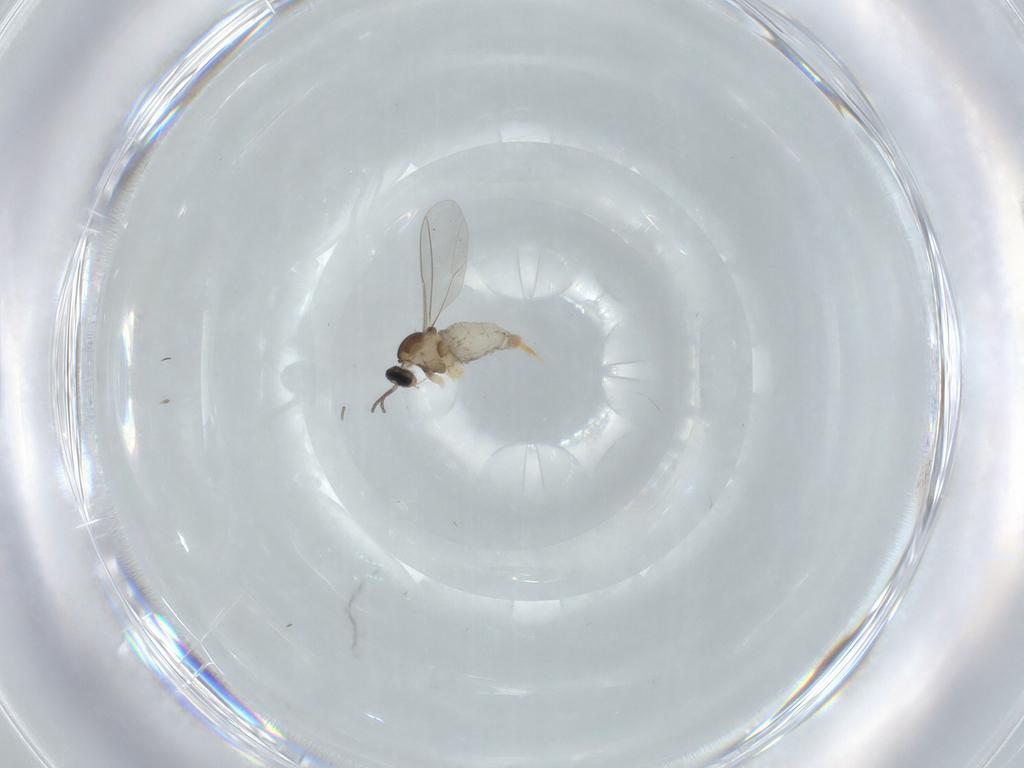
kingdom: Animalia
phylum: Arthropoda
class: Insecta
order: Diptera
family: Cecidomyiidae
